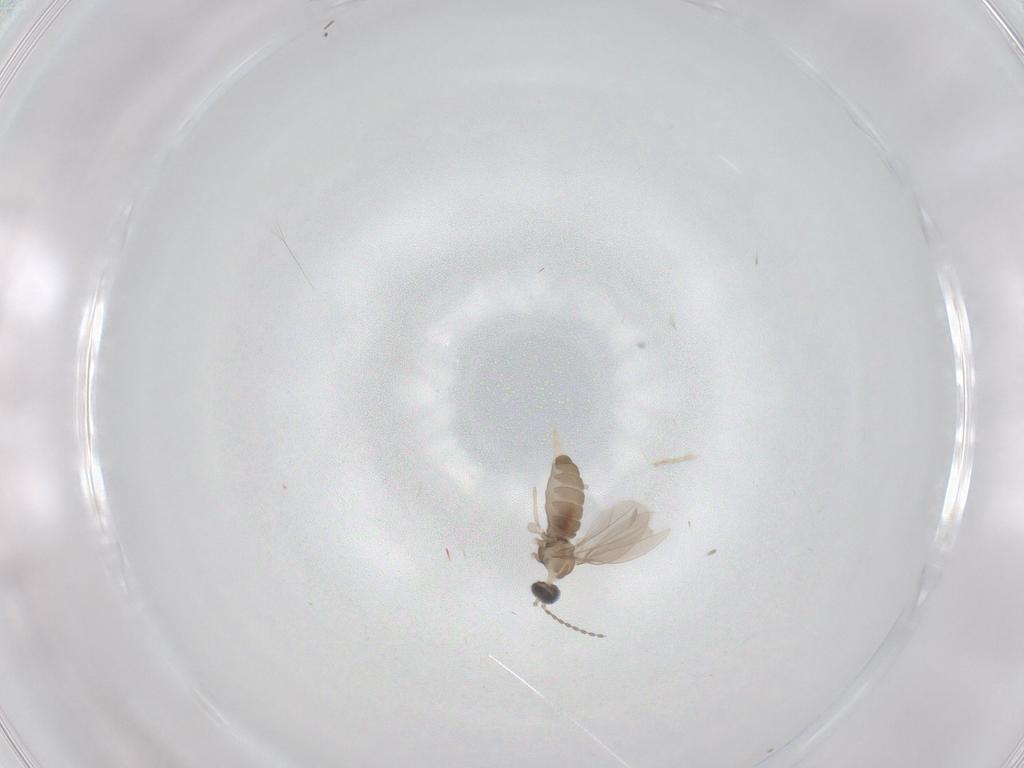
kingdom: Animalia
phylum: Arthropoda
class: Insecta
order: Diptera
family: Cecidomyiidae
